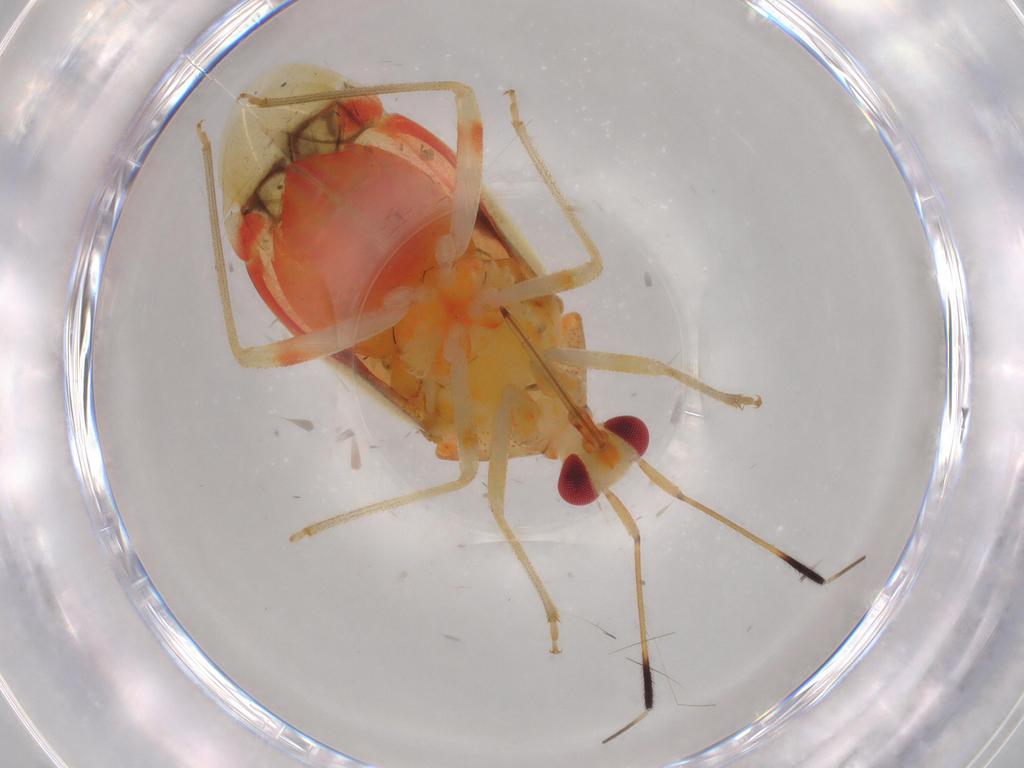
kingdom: Animalia
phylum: Arthropoda
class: Insecta
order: Hemiptera
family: Miridae
